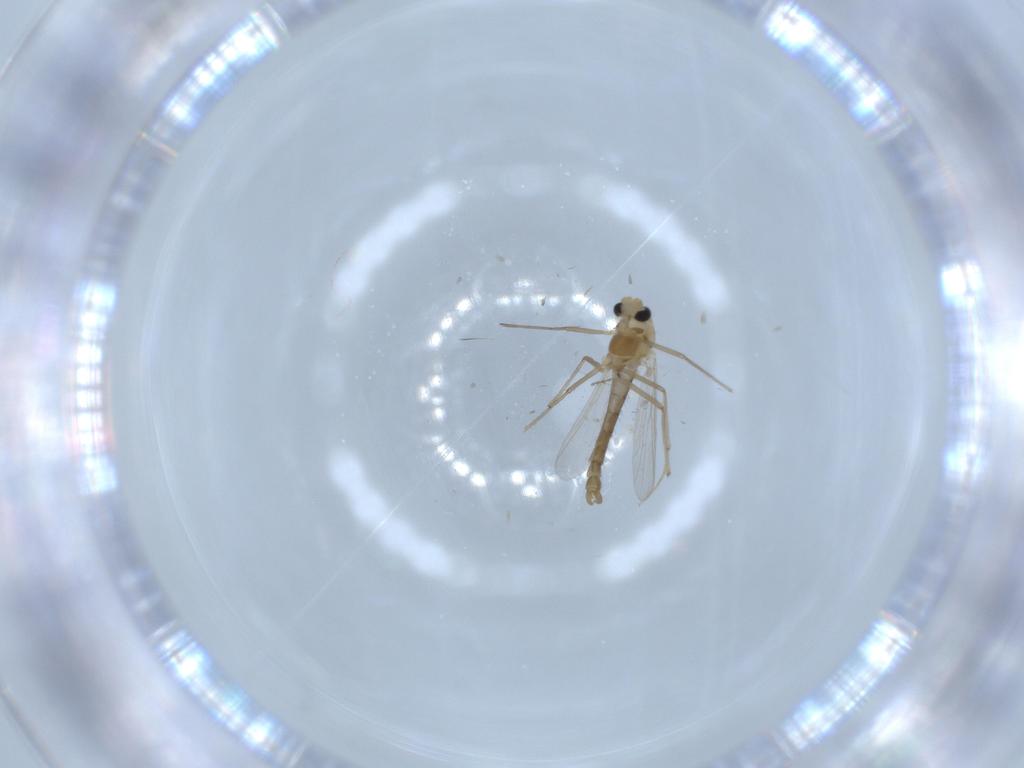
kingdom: Animalia
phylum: Arthropoda
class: Insecta
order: Diptera
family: Chironomidae
